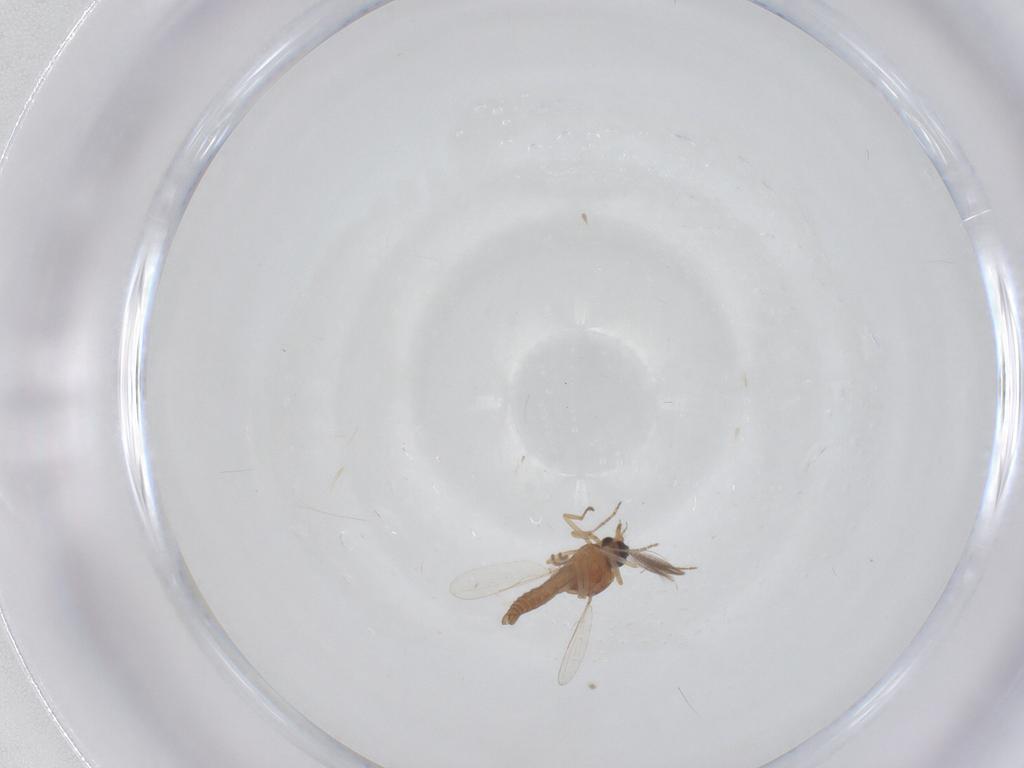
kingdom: Animalia
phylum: Arthropoda
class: Insecta
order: Diptera
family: Ceratopogonidae
